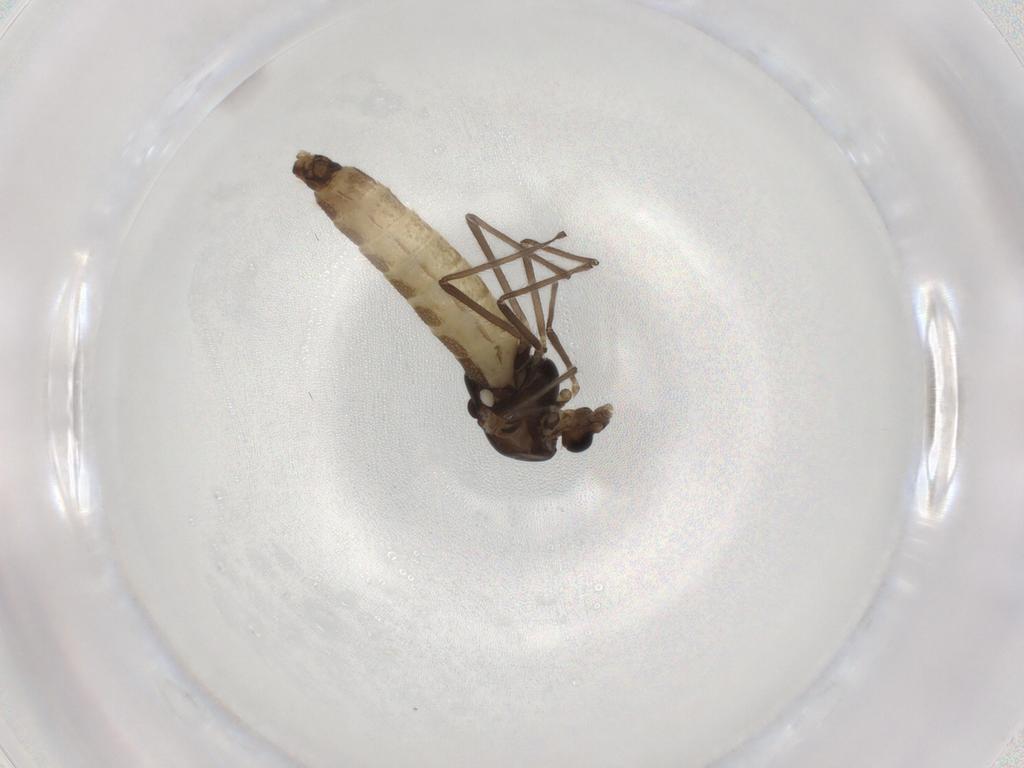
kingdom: Animalia
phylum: Arthropoda
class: Insecta
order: Diptera
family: Chironomidae
